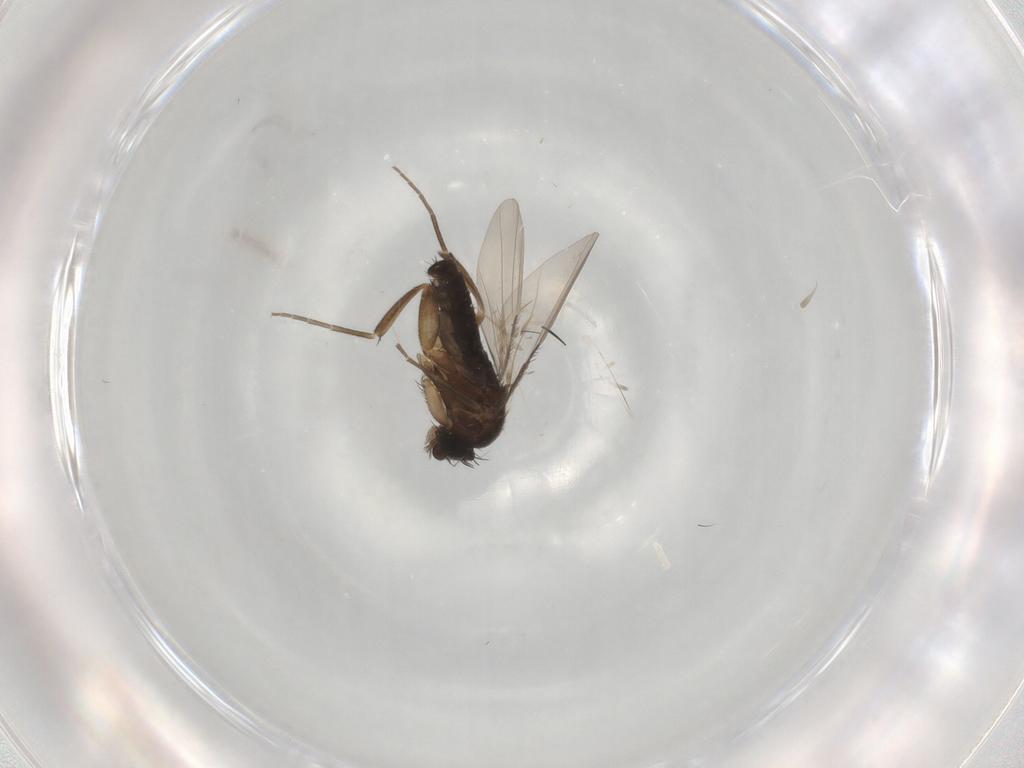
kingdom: Animalia
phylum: Arthropoda
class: Insecta
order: Diptera
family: Phoridae
